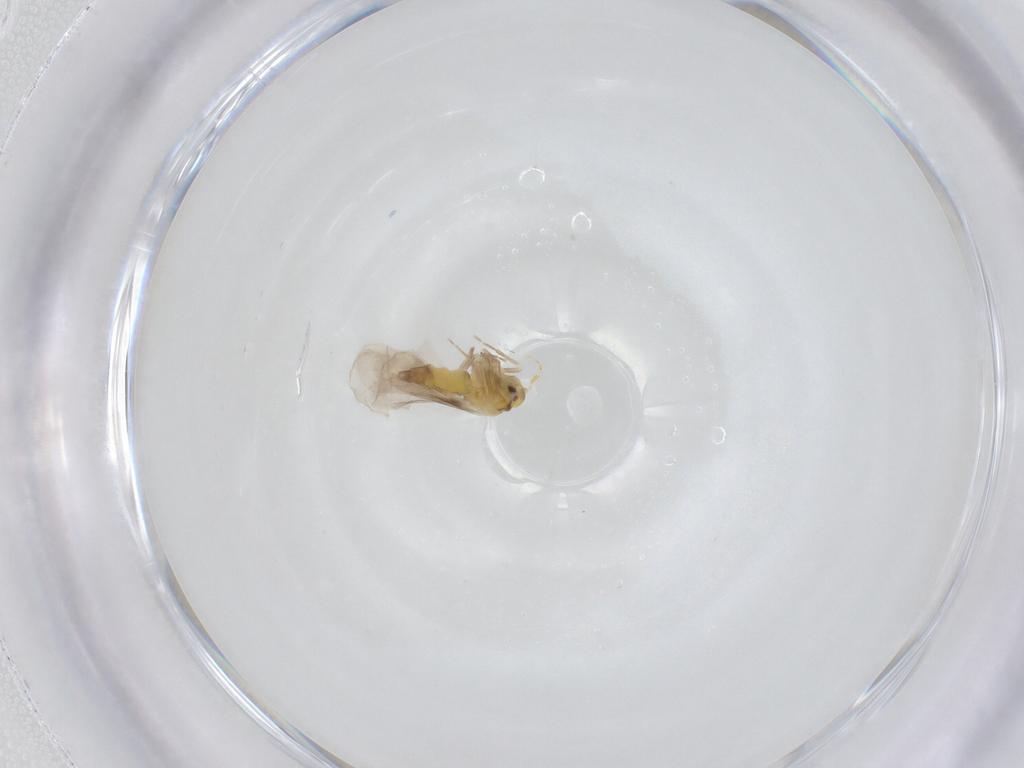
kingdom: Animalia
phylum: Arthropoda
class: Insecta
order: Hemiptera
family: Aleyrodidae
